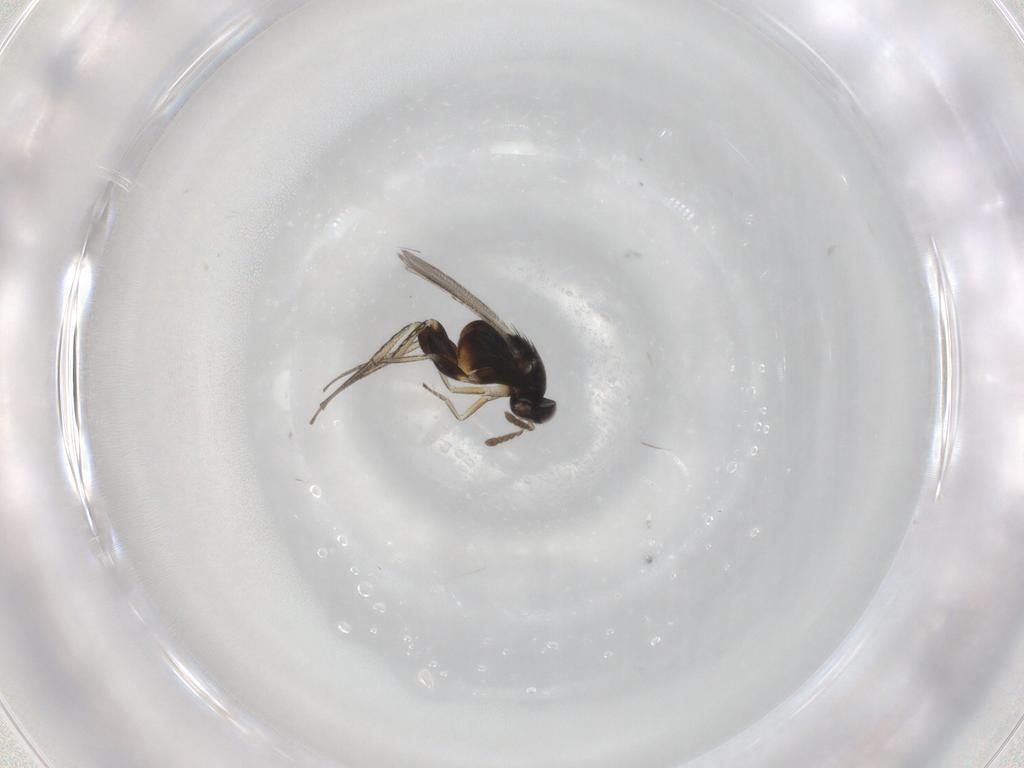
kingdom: Animalia
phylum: Arthropoda
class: Insecta
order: Hymenoptera
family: Eulophidae
